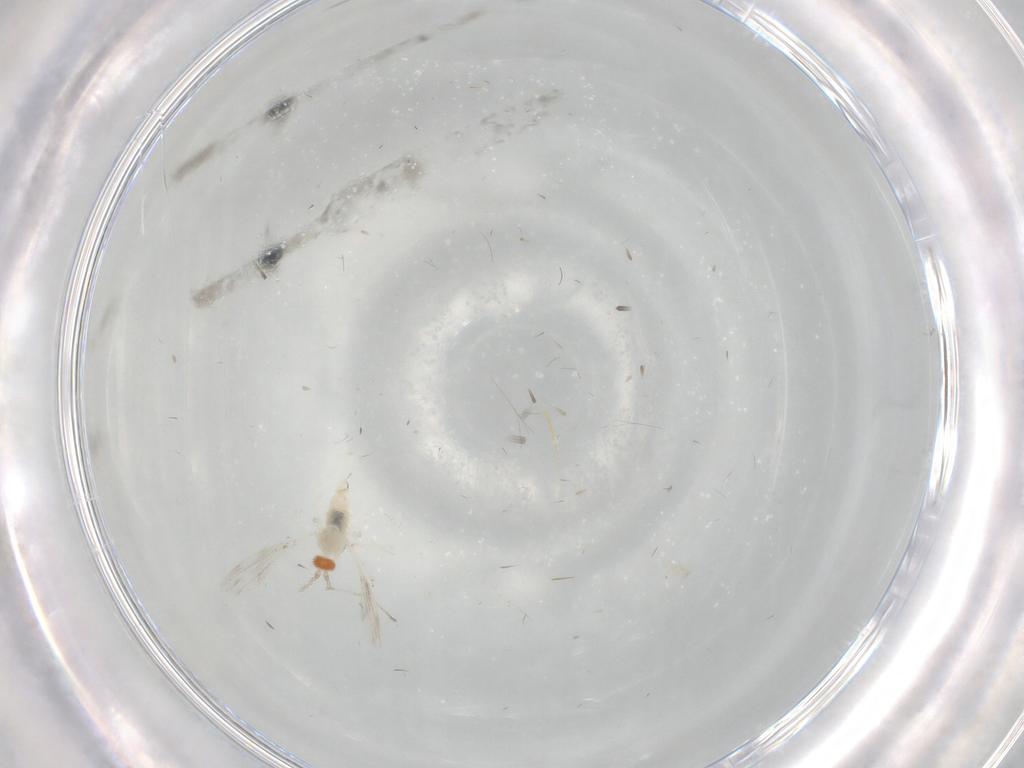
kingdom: Animalia
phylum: Arthropoda
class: Insecta
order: Diptera
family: Cecidomyiidae
